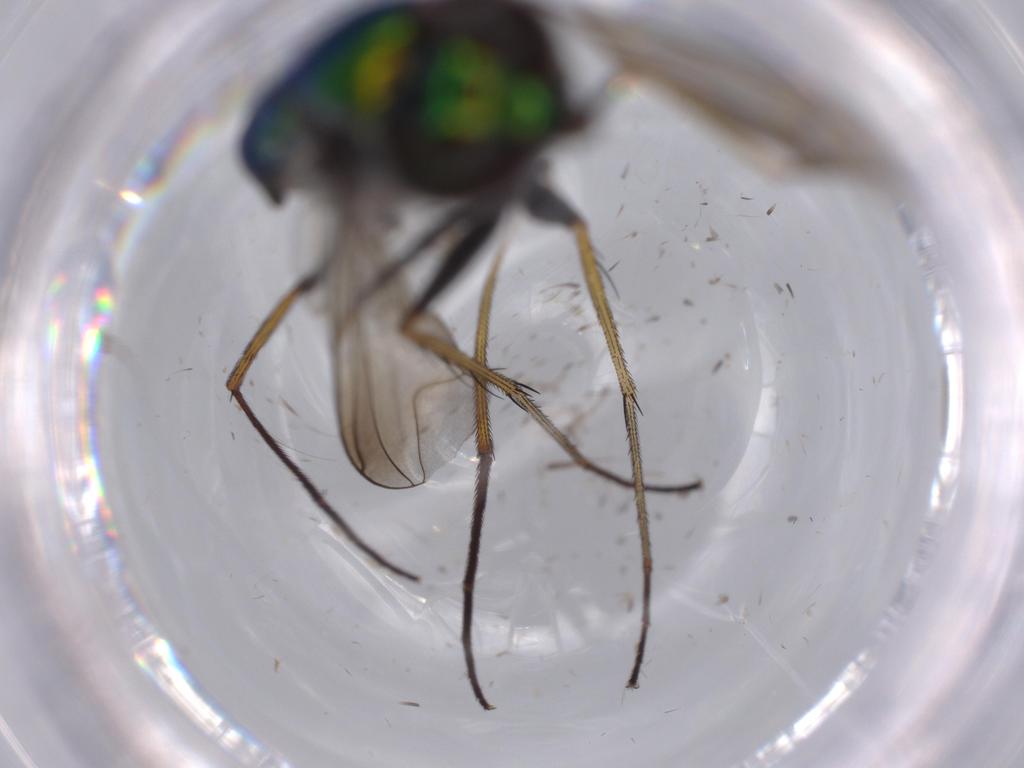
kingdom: Animalia
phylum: Arthropoda
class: Insecta
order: Diptera
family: Dolichopodidae
